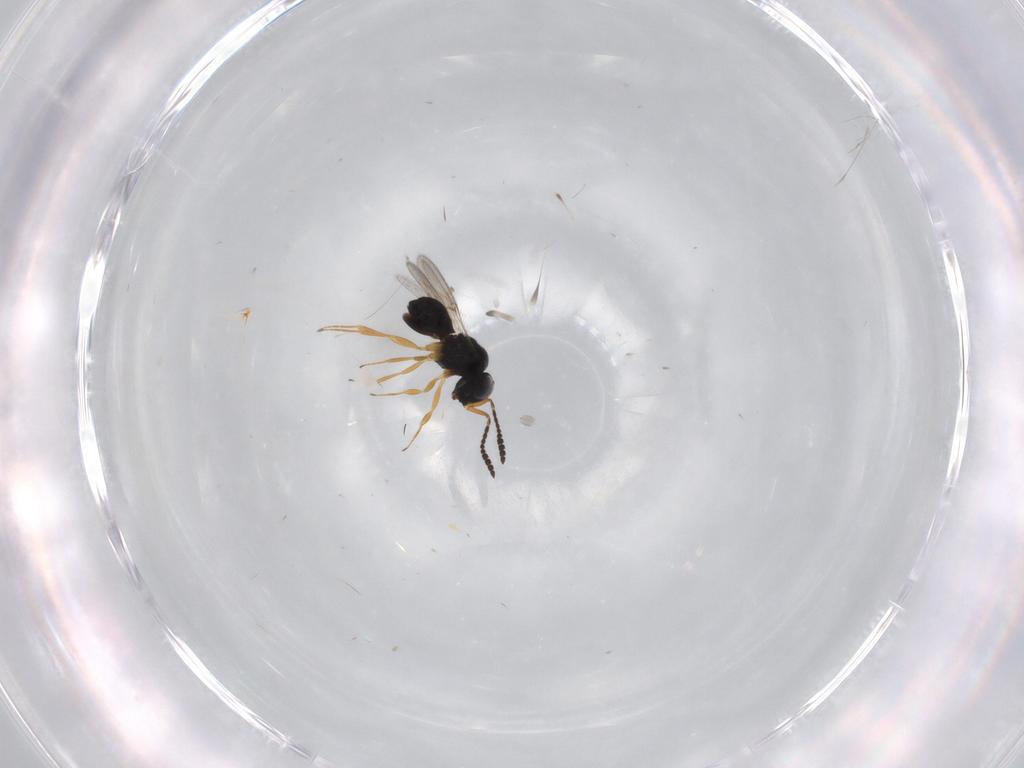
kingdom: Animalia
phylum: Arthropoda
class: Insecta
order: Hymenoptera
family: Scelionidae
